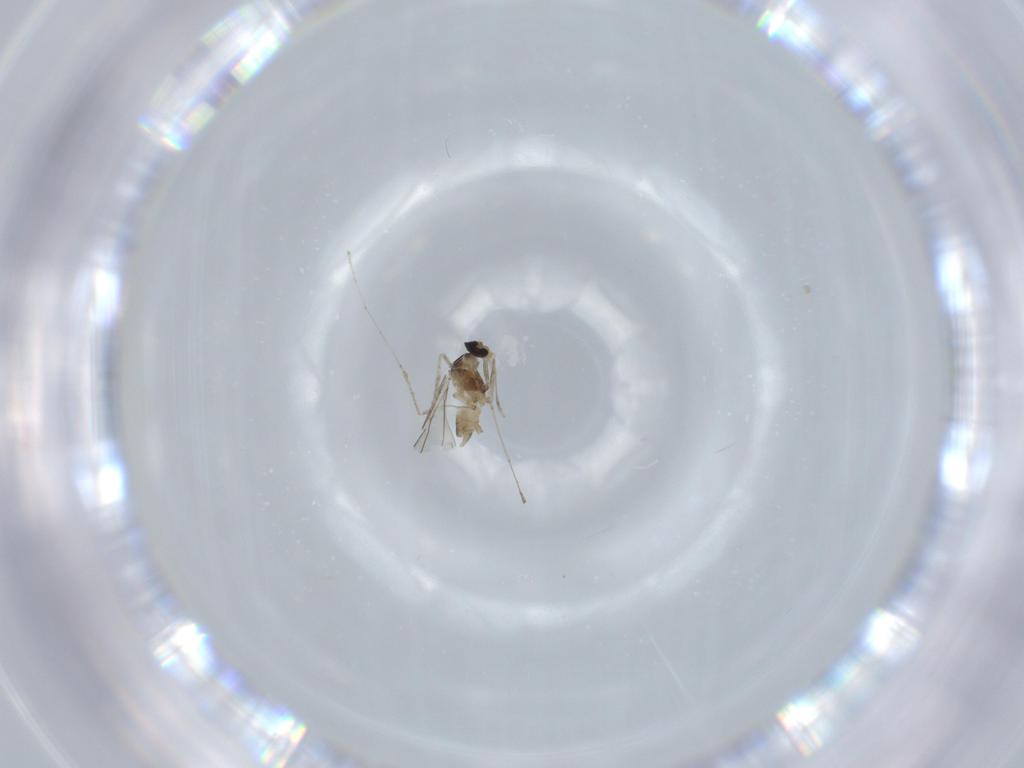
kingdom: Animalia
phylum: Arthropoda
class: Insecta
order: Diptera
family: Cecidomyiidae
